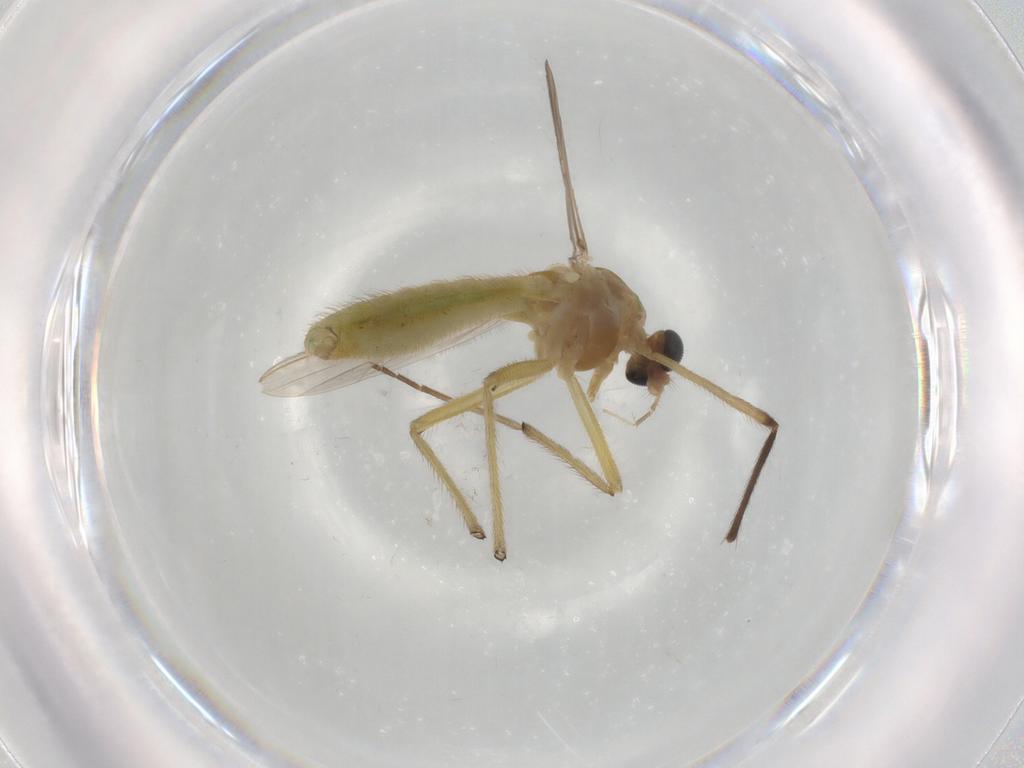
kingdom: Animalia
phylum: Arthropoda
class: Insecta
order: Diptera
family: Chironomidae
